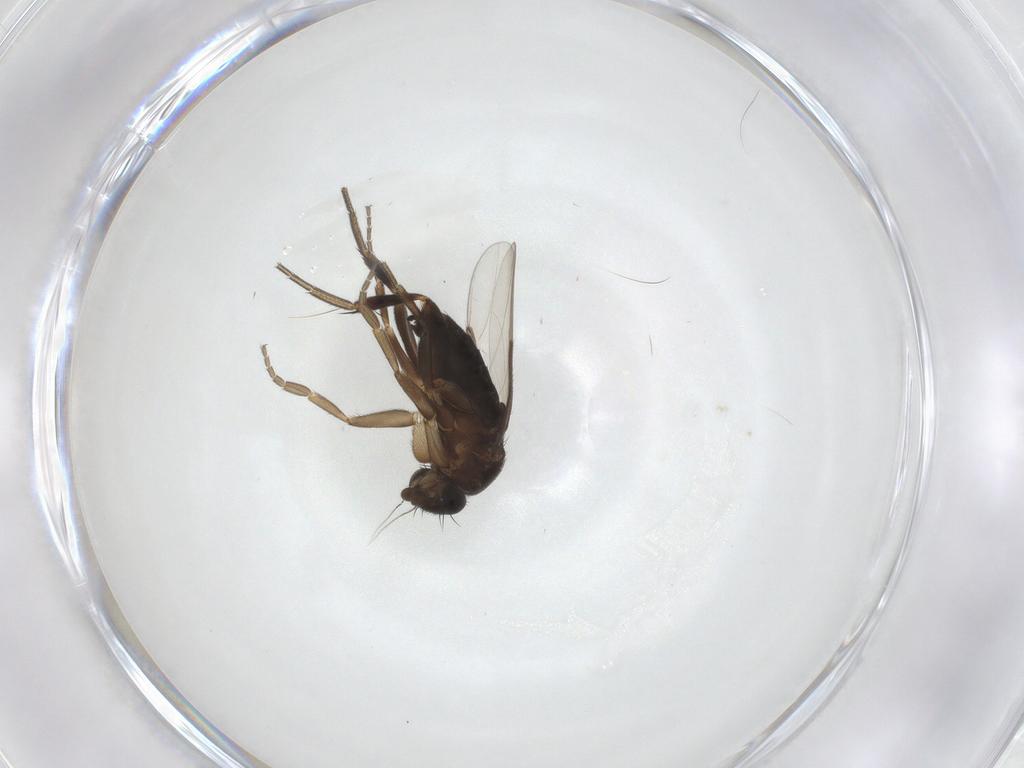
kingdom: Animalia
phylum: Arthropoda
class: Insecta
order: Diptera
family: Phoridae
